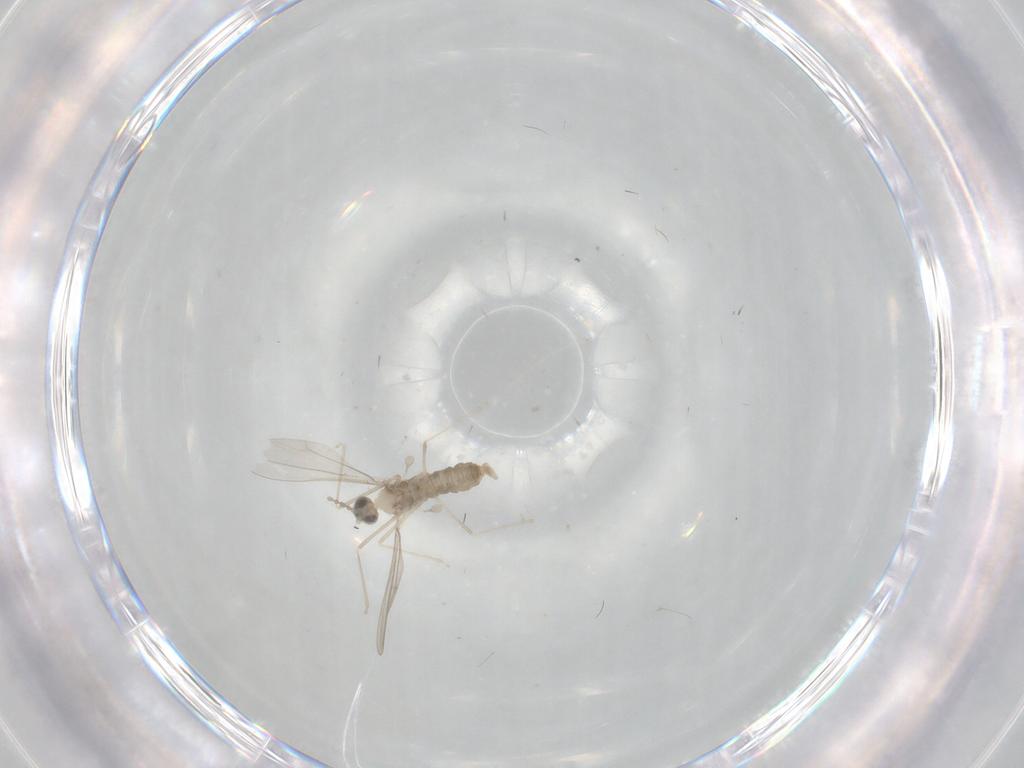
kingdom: Animalia
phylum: Arthropoda
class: Insecta
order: Diptera
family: Cecidomyiidae
